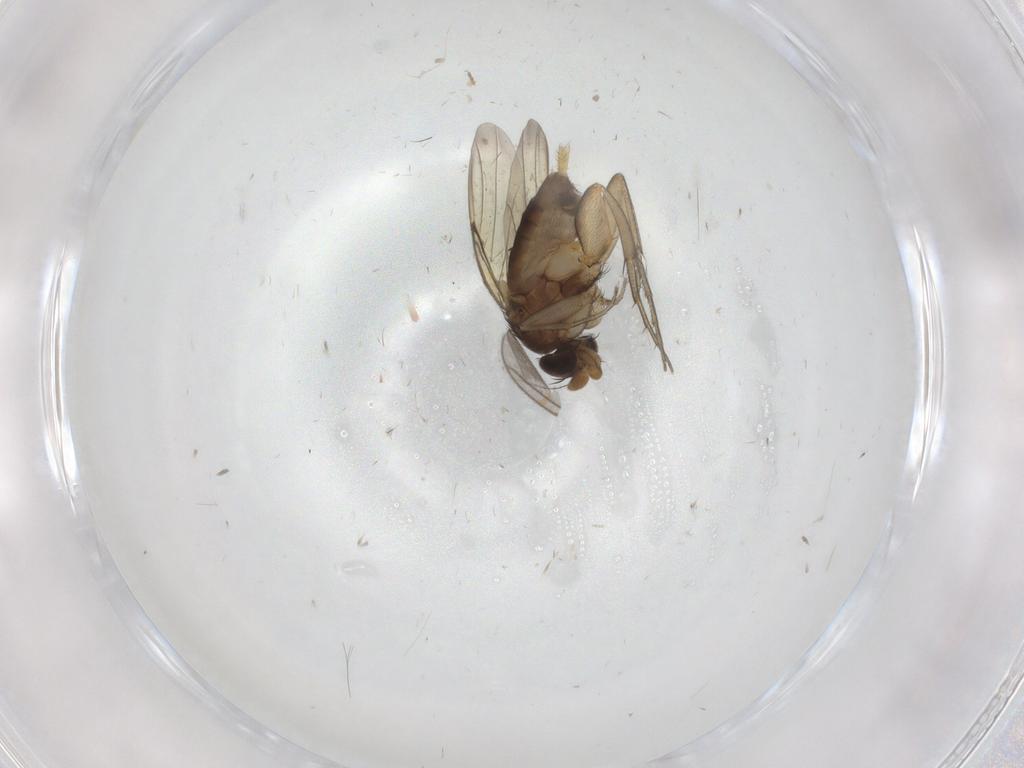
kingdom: Animalia
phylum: Arthropoda
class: Insecta
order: Diptera
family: Phoridae
